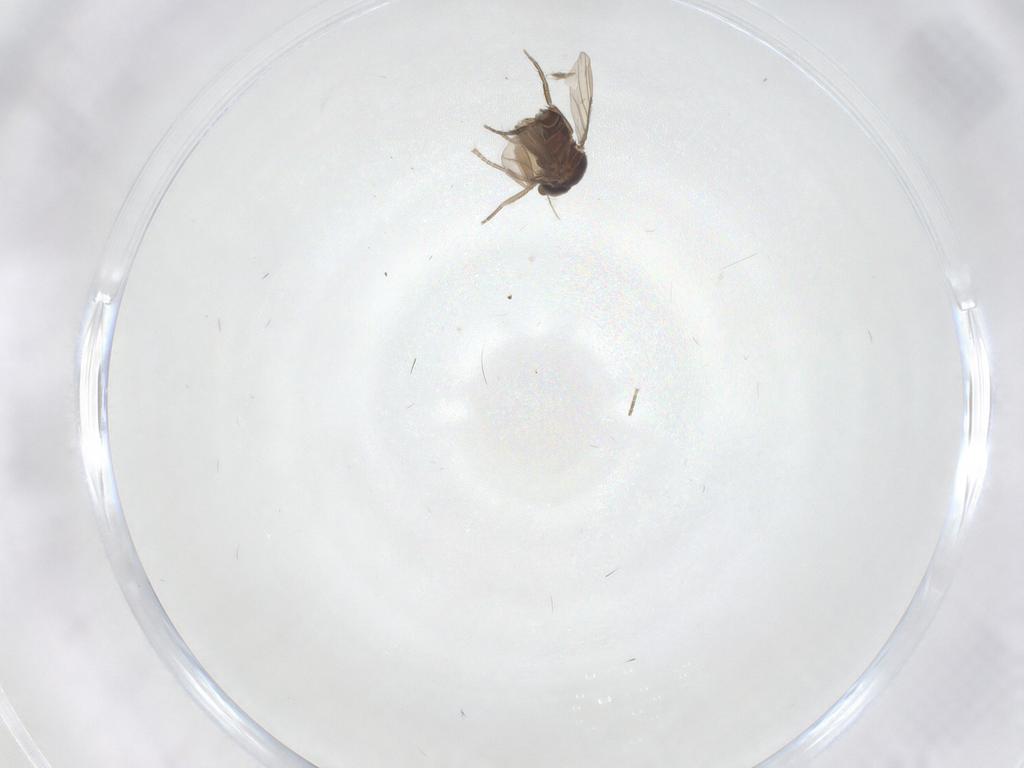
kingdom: Animalia
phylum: Arthropoda
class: Insecta
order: Diptera
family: Phoridae
